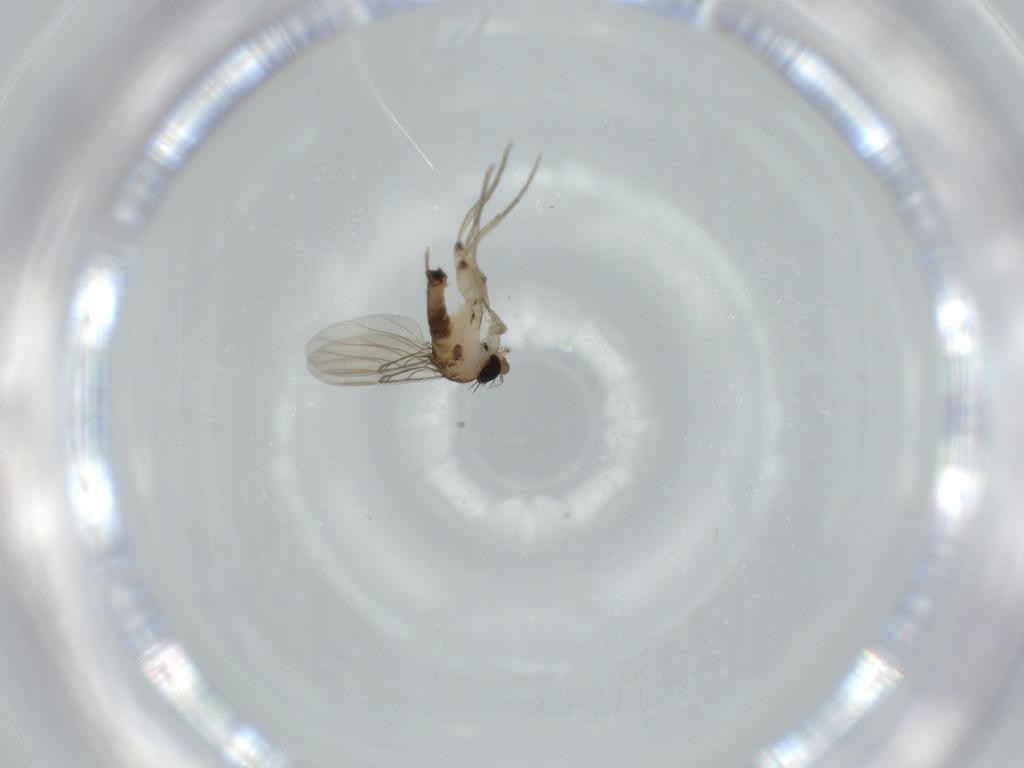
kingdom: Animalia
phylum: Arthropoda
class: Insecta
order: Diptera
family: Phoridae
